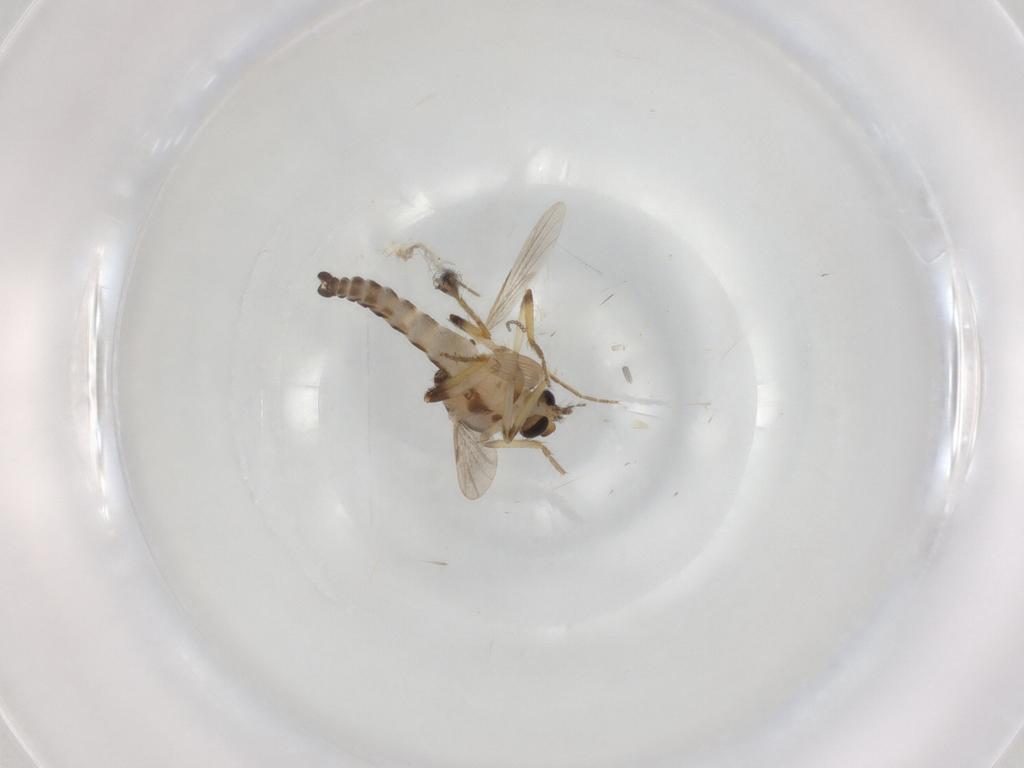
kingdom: Animalia
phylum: Arthropoda
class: Insecta
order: Diptera
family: Ceratopogonidae
